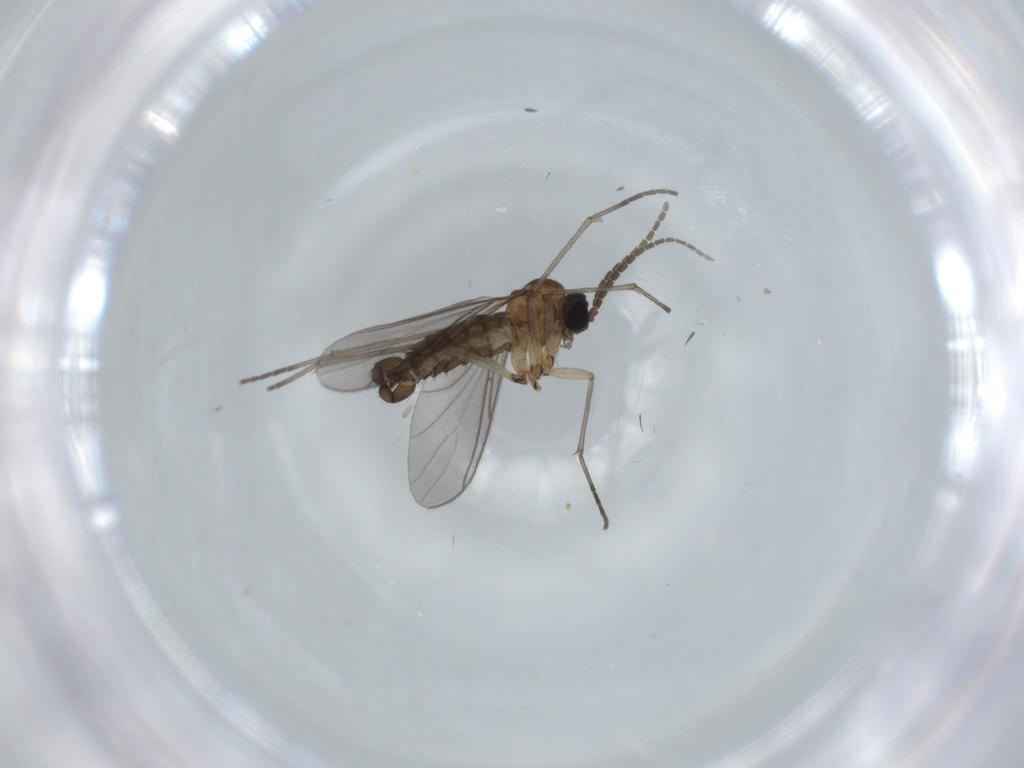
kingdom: Animalia
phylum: Arthropoda
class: Insecta
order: Diptera
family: Sciaridae
